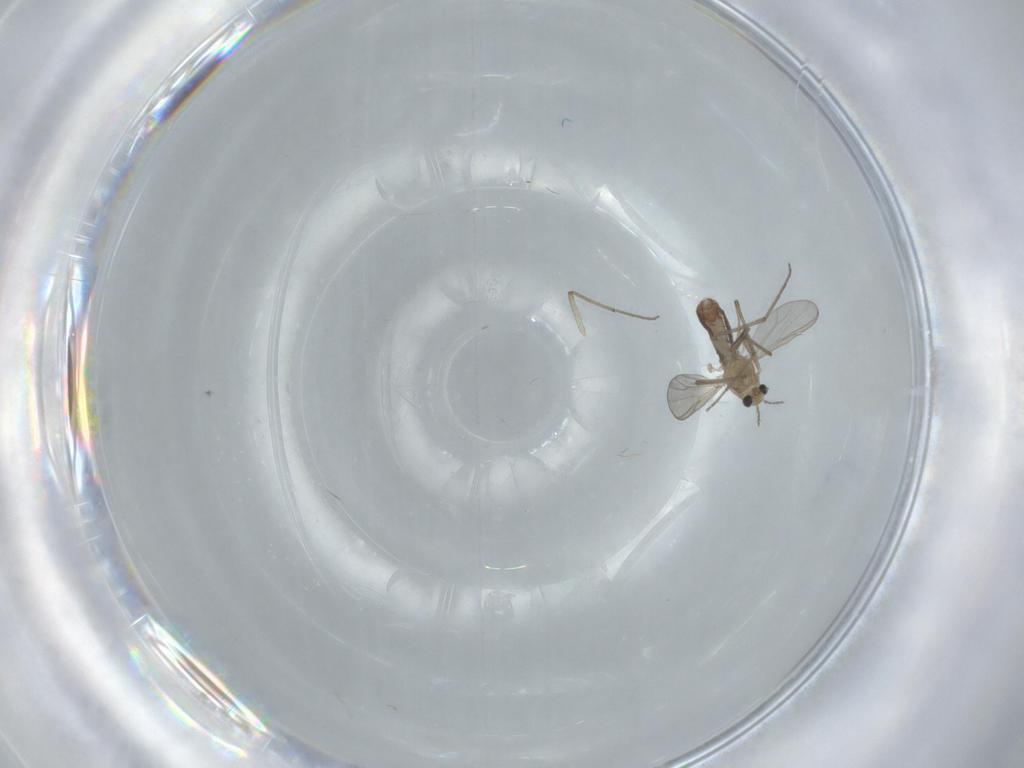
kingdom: Animalia
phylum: Arthropoda
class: Insecta
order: Diptera
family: Chironomidae
